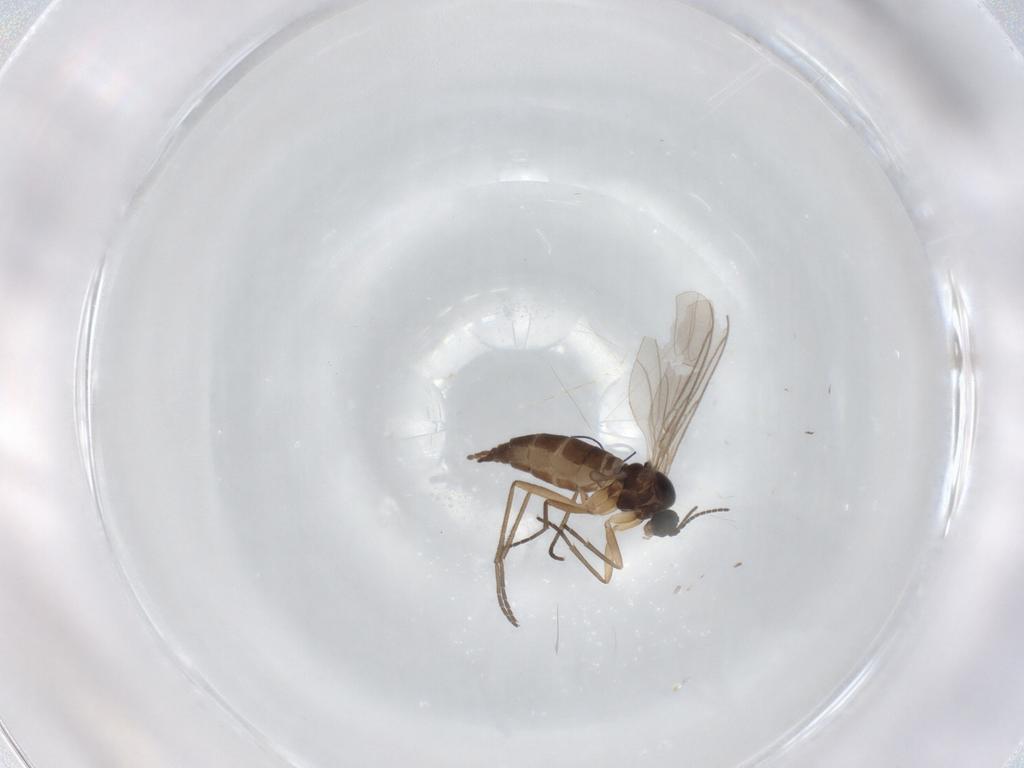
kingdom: Animalia
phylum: Arthropoda
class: Insecta
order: Diptera
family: Sciaridae
